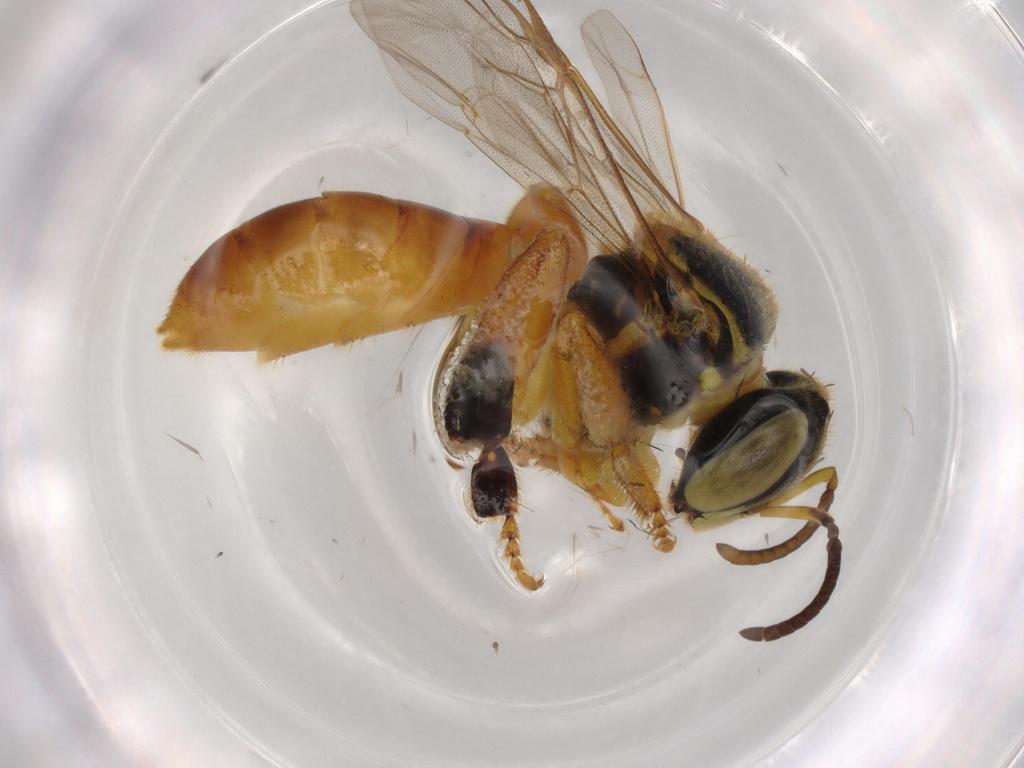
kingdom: Animalia
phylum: Arthropoda
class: Insecta
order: Hymenoptera
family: Apidae
